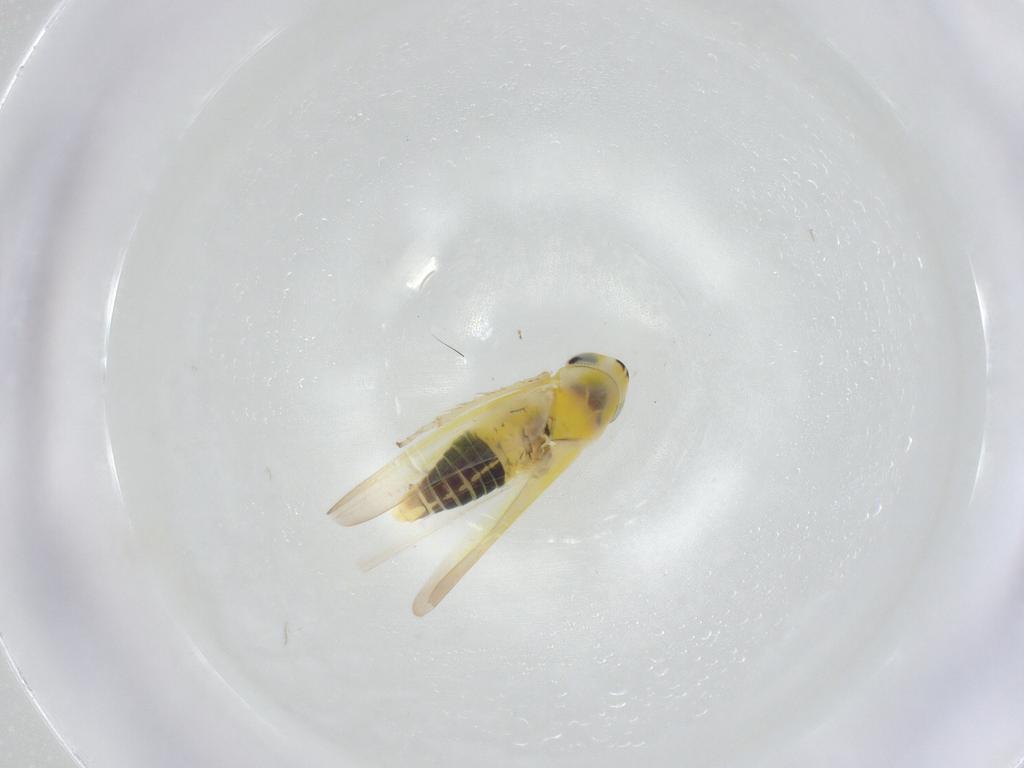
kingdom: Animalia
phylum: Arthropoda
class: Insecta
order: Hemiptera
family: Cicadellidae
